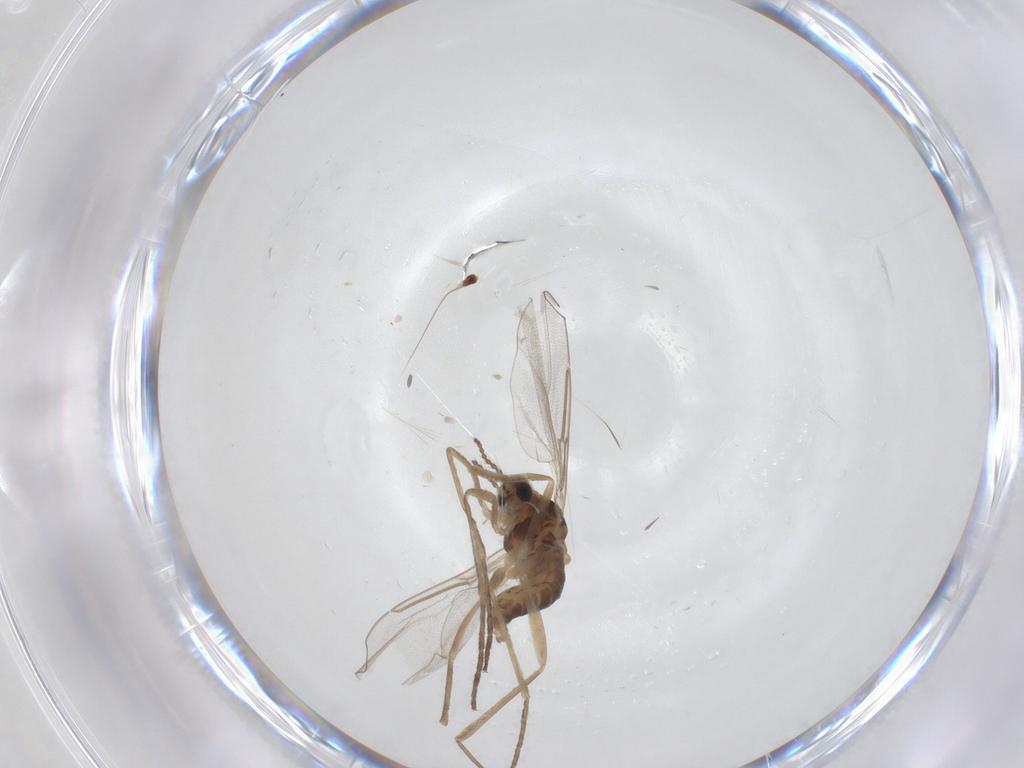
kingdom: Animalia
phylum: Arthropoda
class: Insecta
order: Diptera
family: Cecidomyiidae
